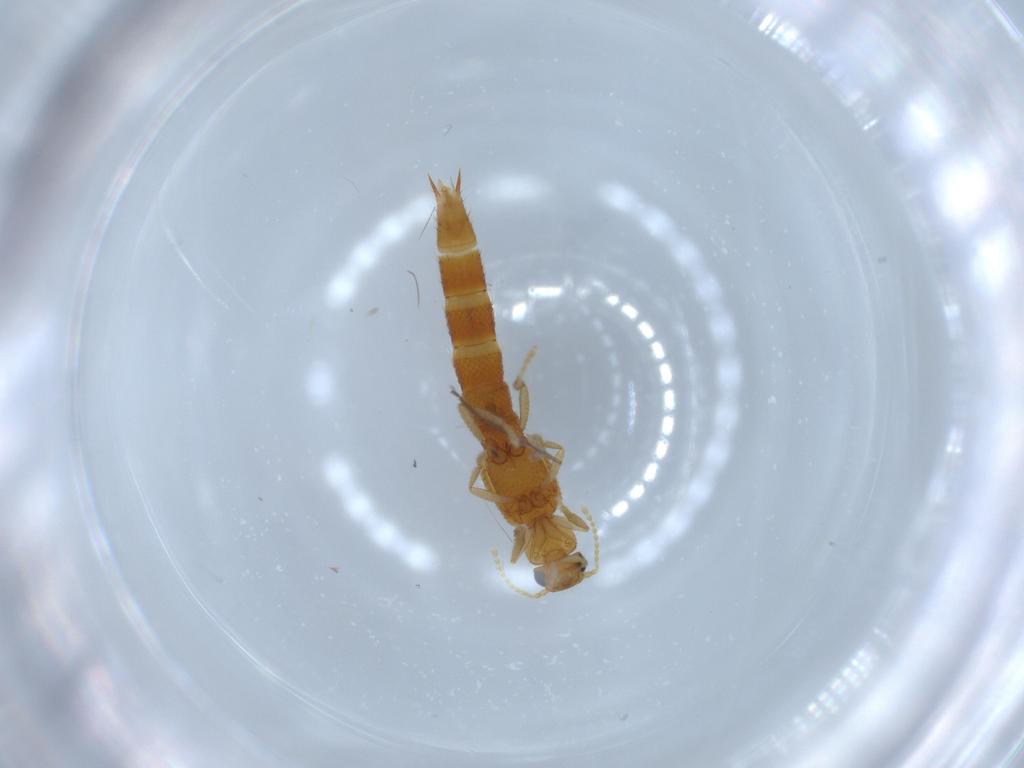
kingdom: Animalia
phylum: Arthropoda
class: Insecta
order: Coleoptera
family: Staphylinidae
